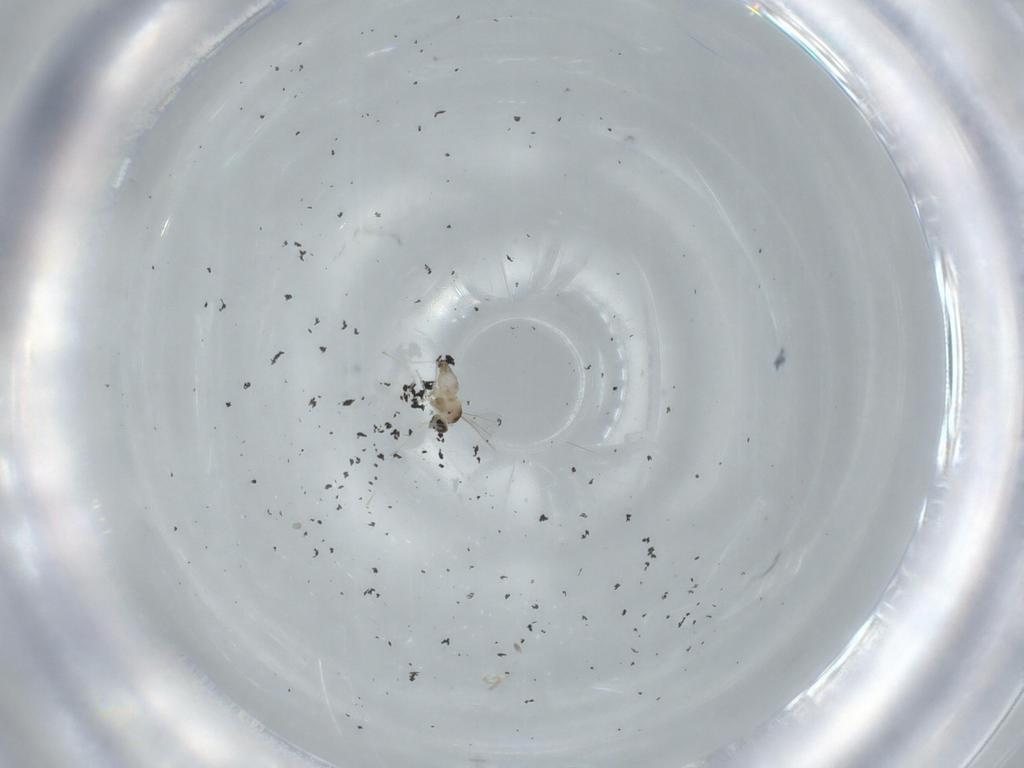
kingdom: Animalia
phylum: Arthropoda
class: Insecta
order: Diptera
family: Cecidomyiidae
